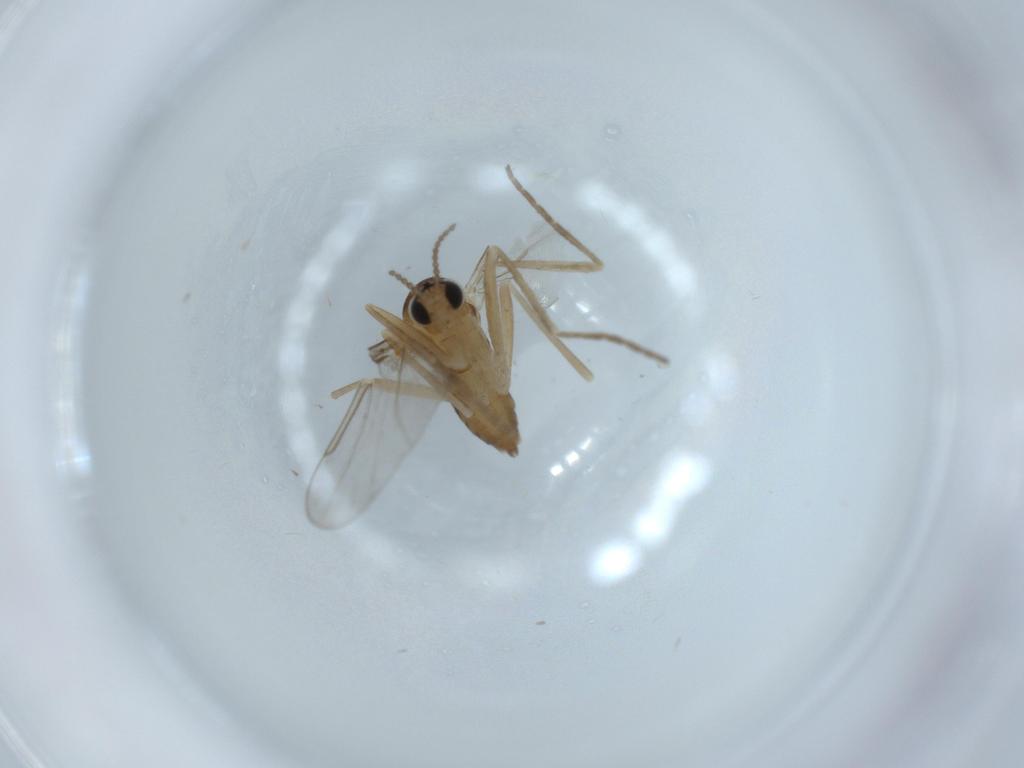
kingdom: Animalia
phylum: Arthropoda
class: Insecta
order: Diptera
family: Cecidomyiidae
